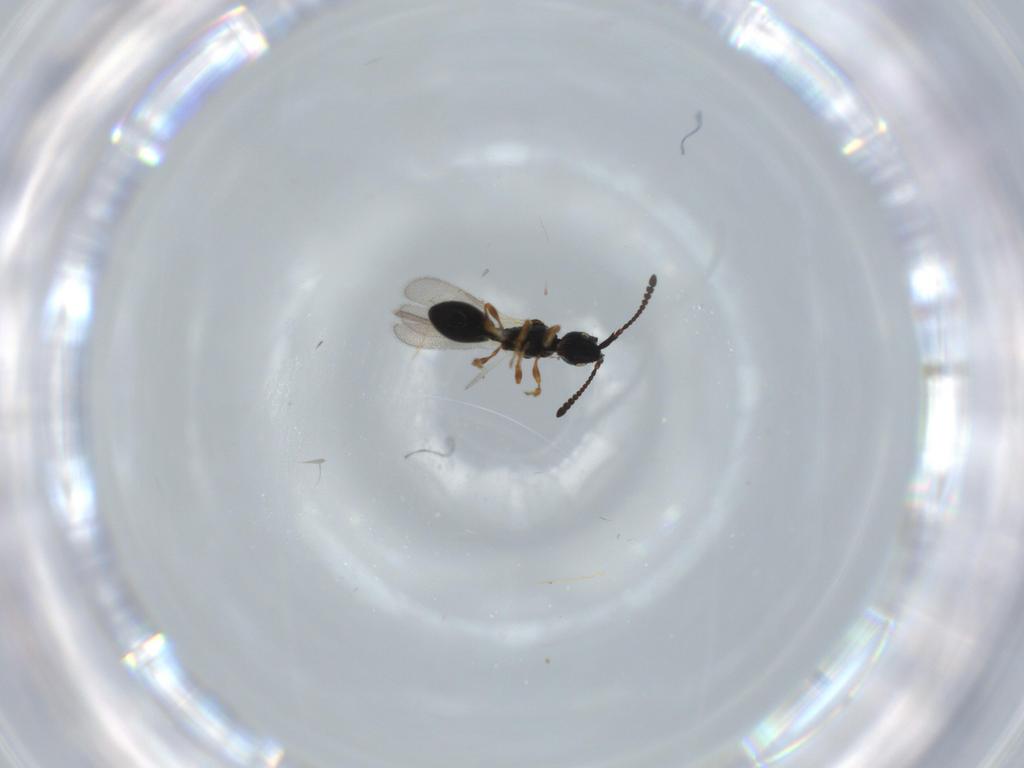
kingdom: Animalia
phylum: Arthropoda
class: Insecta
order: Hymenoptera
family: Diapriidae
